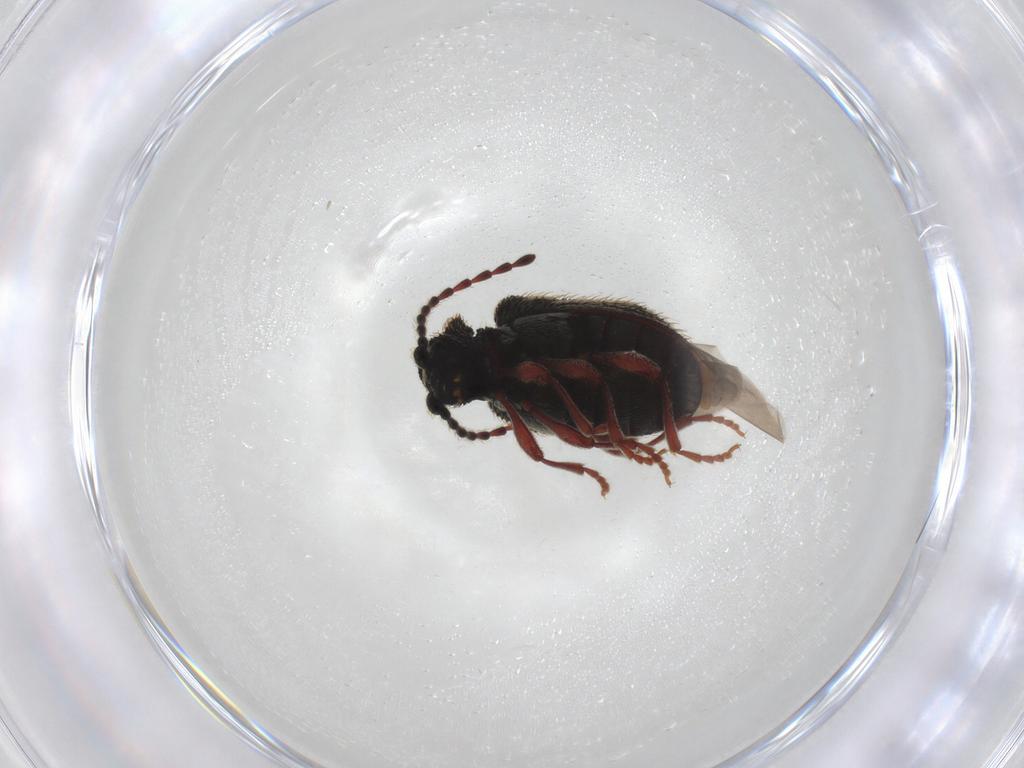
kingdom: Animalia
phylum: Arthropoda
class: Insecta
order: Coleoptera
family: Ptinidae
